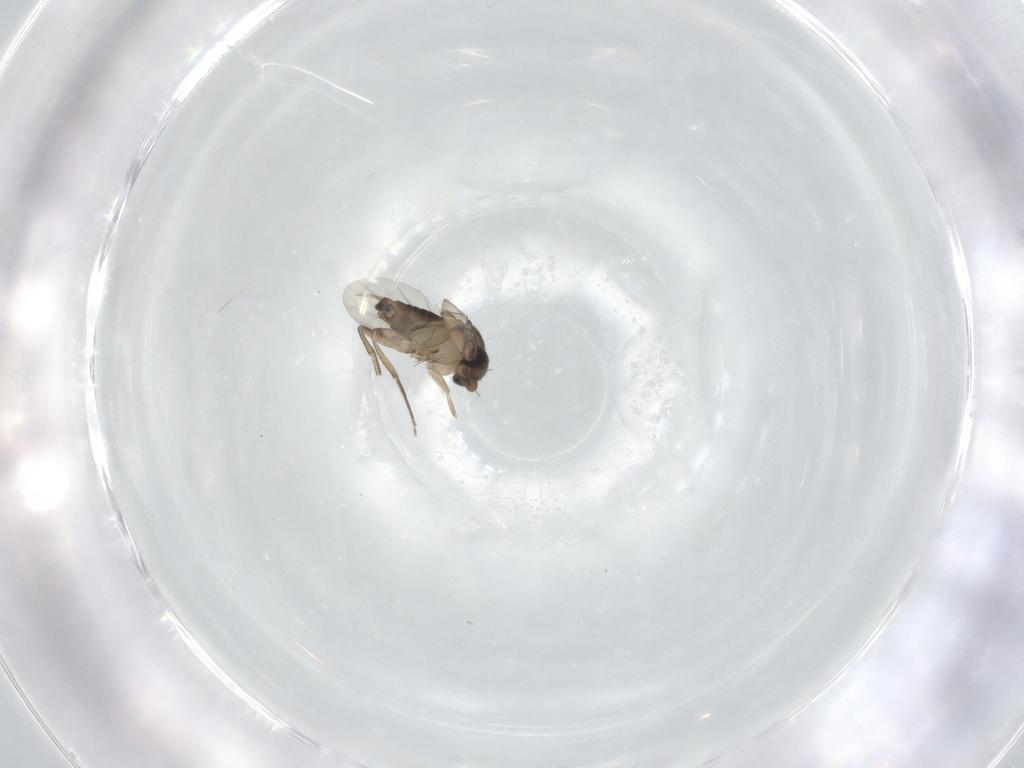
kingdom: Animalia
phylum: Arthropoda
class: Insecta
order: Diptera
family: Phoridae
